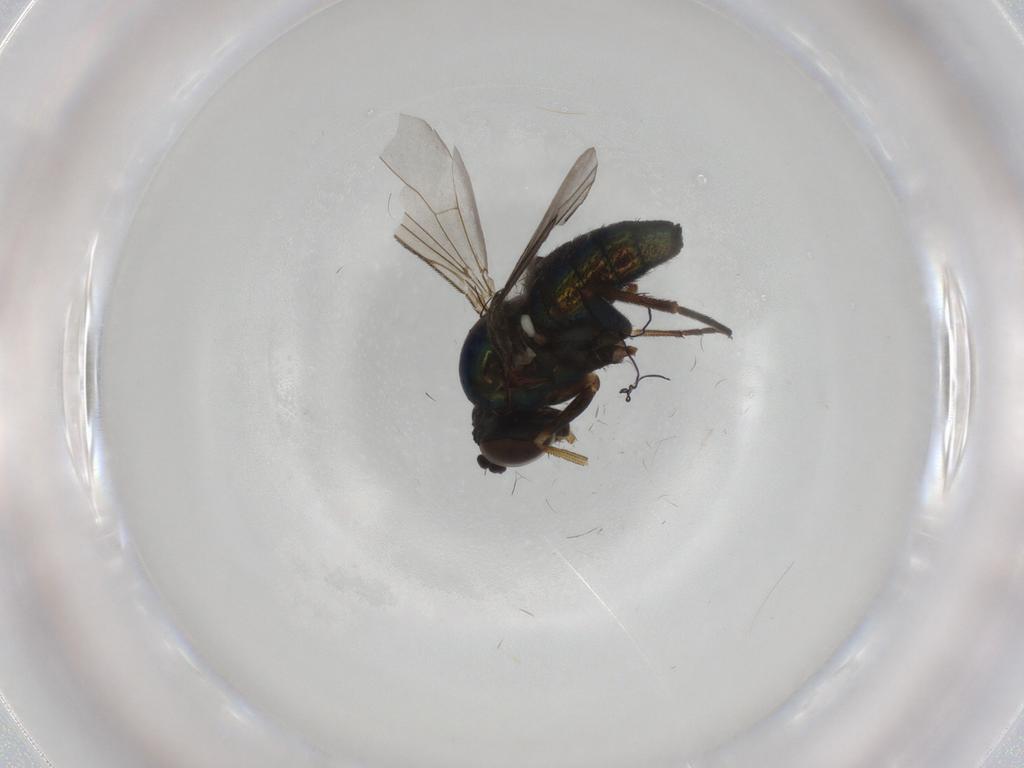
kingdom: Animalia
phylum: Arthropoda
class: Insecta
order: Diptera
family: Dolichopodidae
